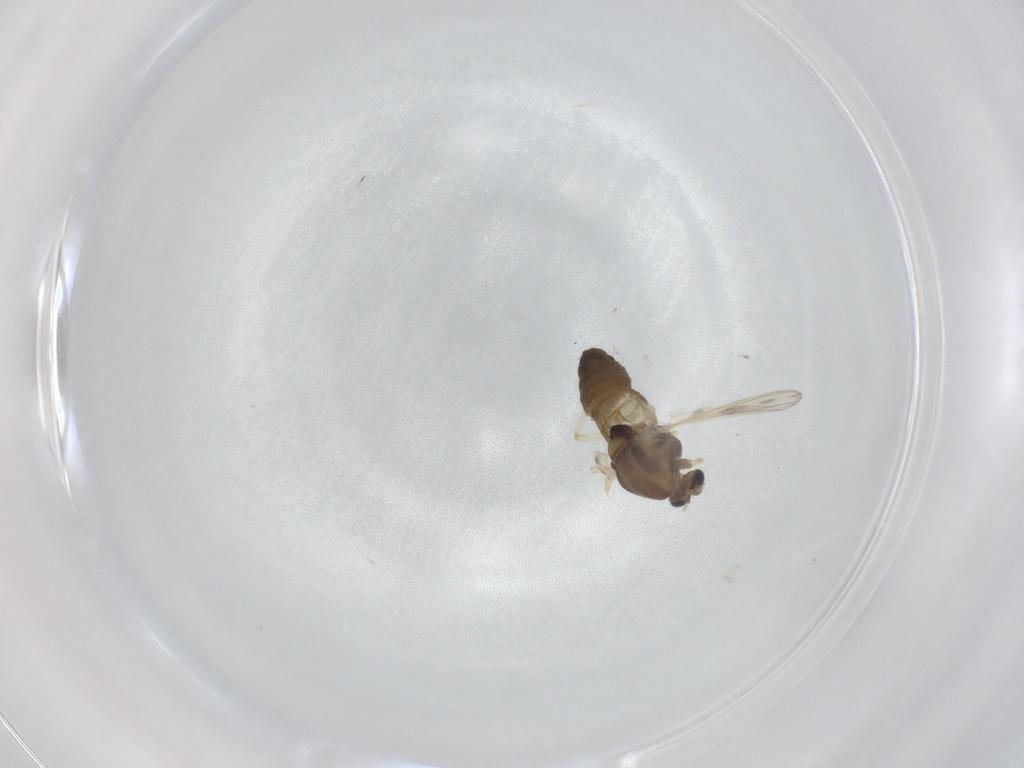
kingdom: Animalia
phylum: Arthropoda
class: Insecta
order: Diptera
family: Chironomidae
